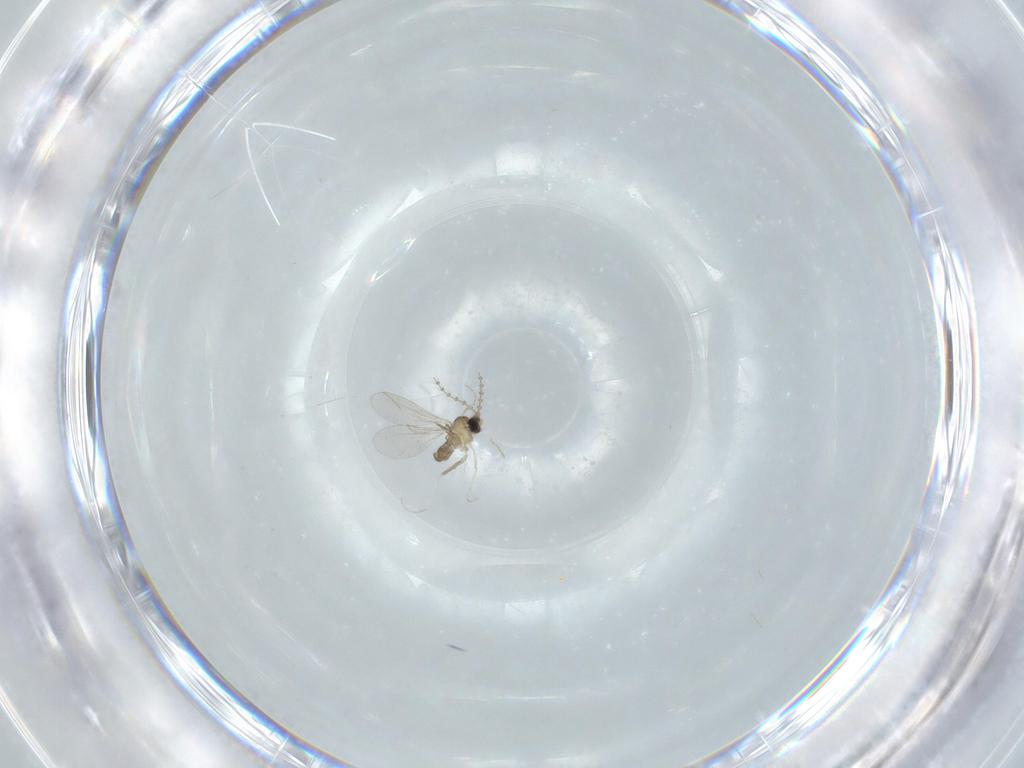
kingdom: Animalia
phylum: Arthropoda
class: Insecta
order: Diptera
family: Cecidomyiidae
